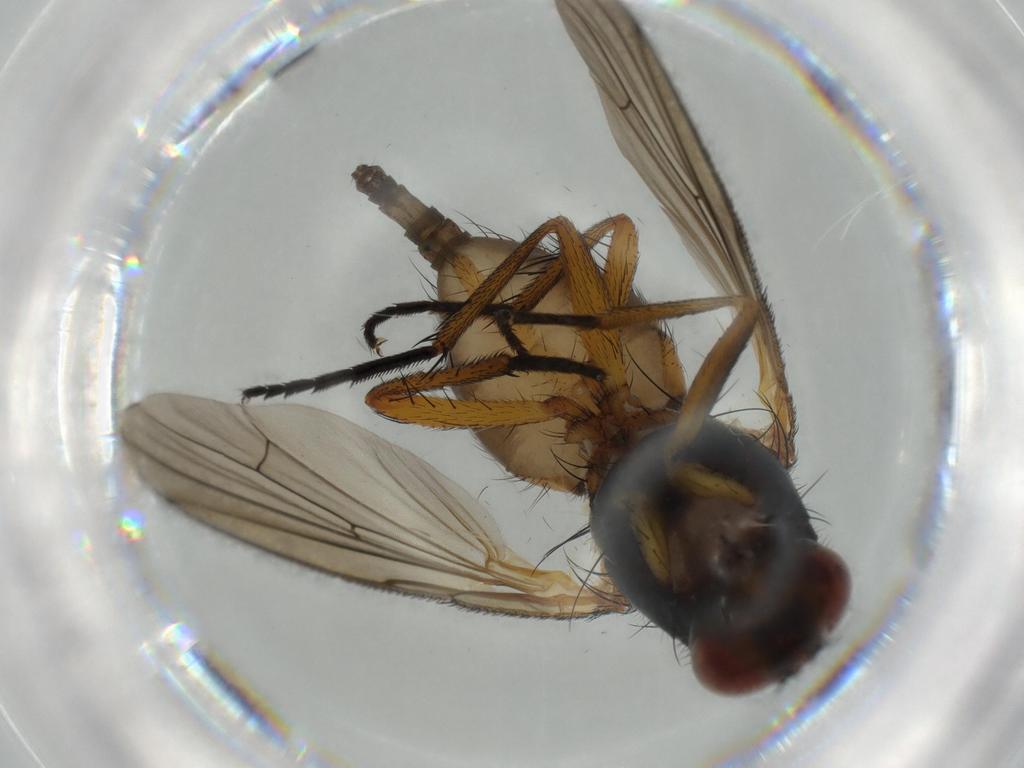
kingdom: Animalia
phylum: Arthropoda
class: Insecta
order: Diptera
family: Anthomyiidae
